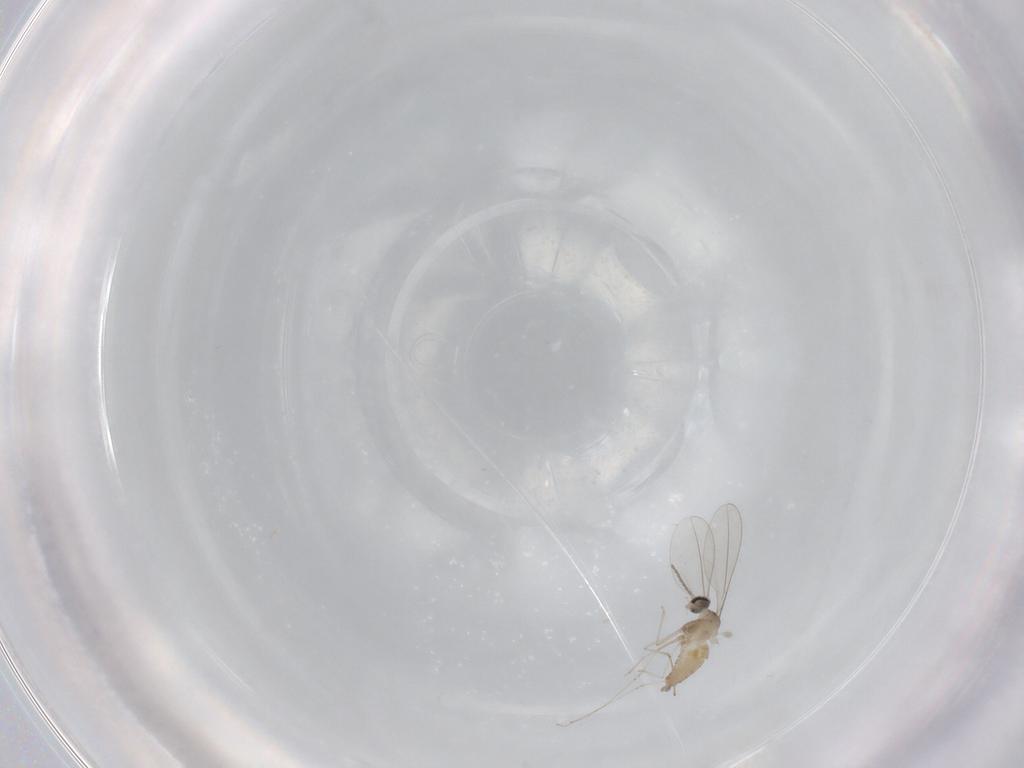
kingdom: Animalia
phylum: Arthropoda
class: Insecta
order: Diptera
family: Cecidomyiidae
